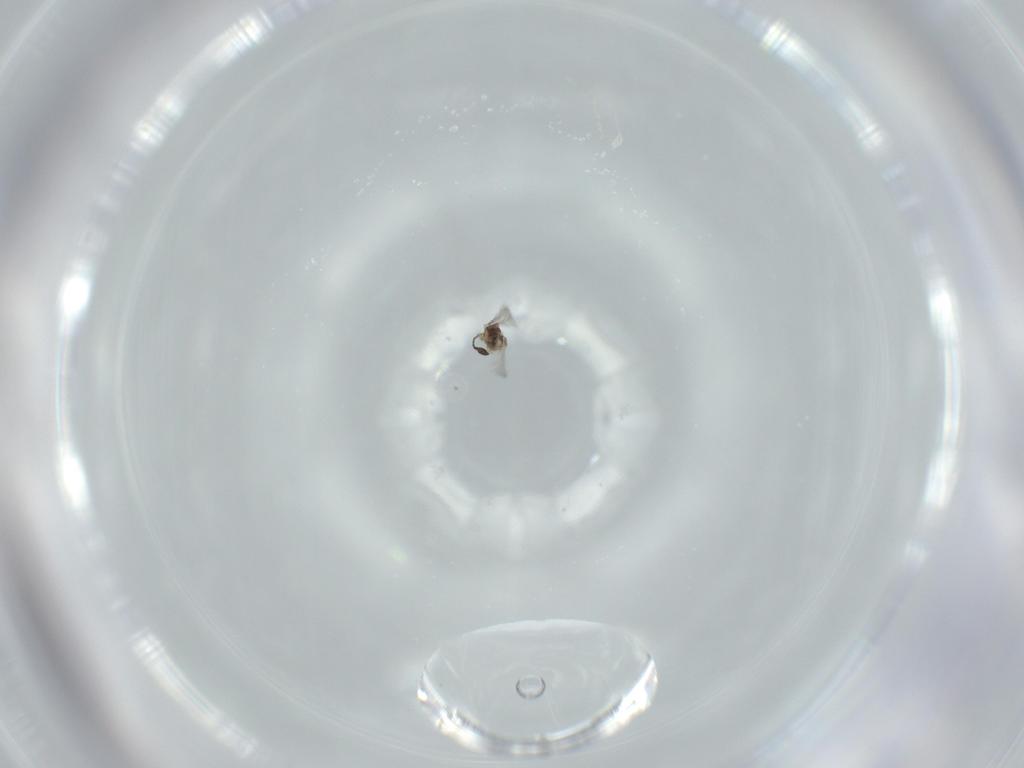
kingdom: Animalia
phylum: Arthropoda
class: Insecta
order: Hymenoptera
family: Mymaridae
